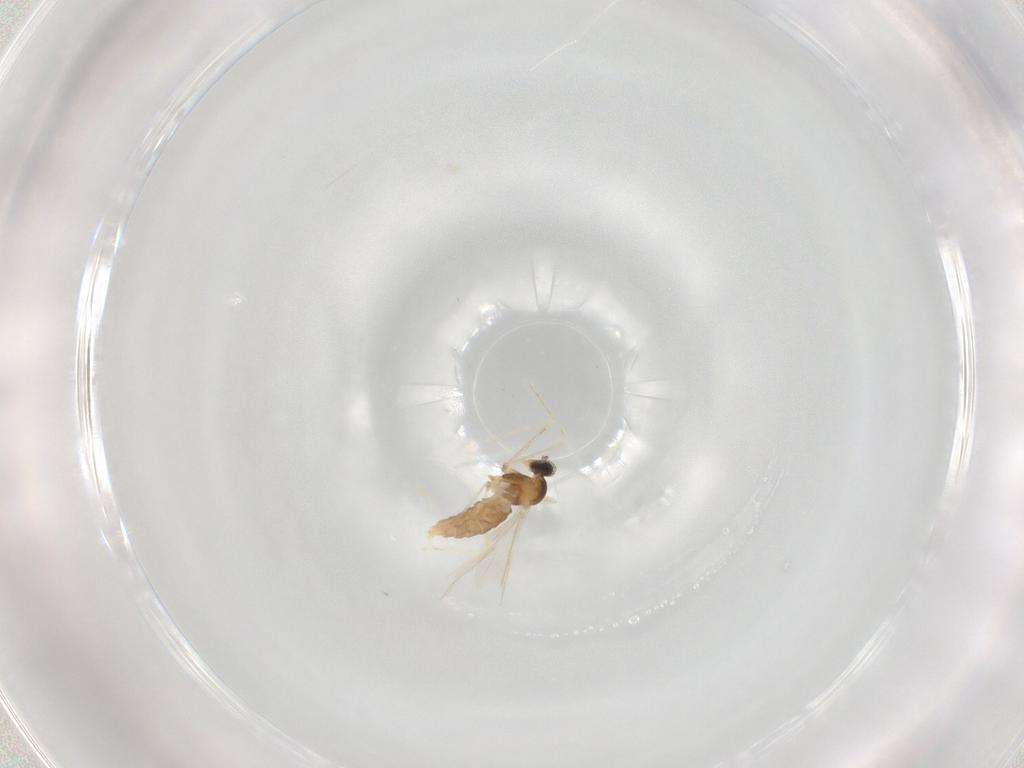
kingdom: Animalia
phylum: Arthropoda
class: Insecta
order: Diptera
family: Cecidomyiidae
